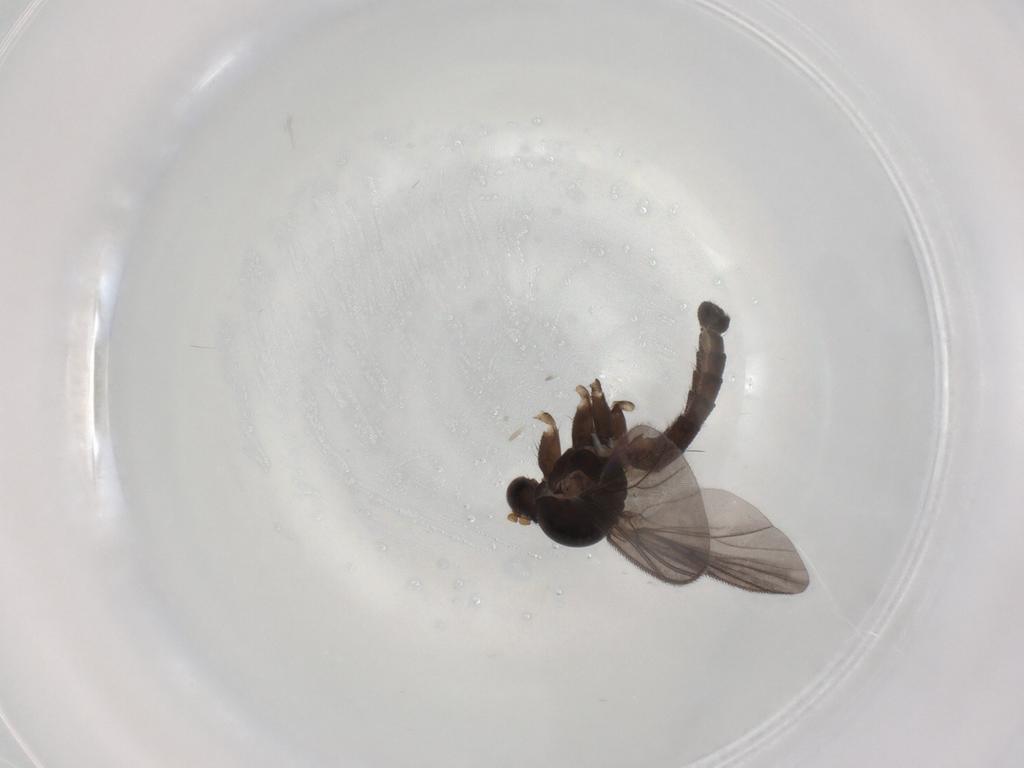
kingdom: Animalia
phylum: Arthropoda
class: Insecta
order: Diptera
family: Mycetophilidae
